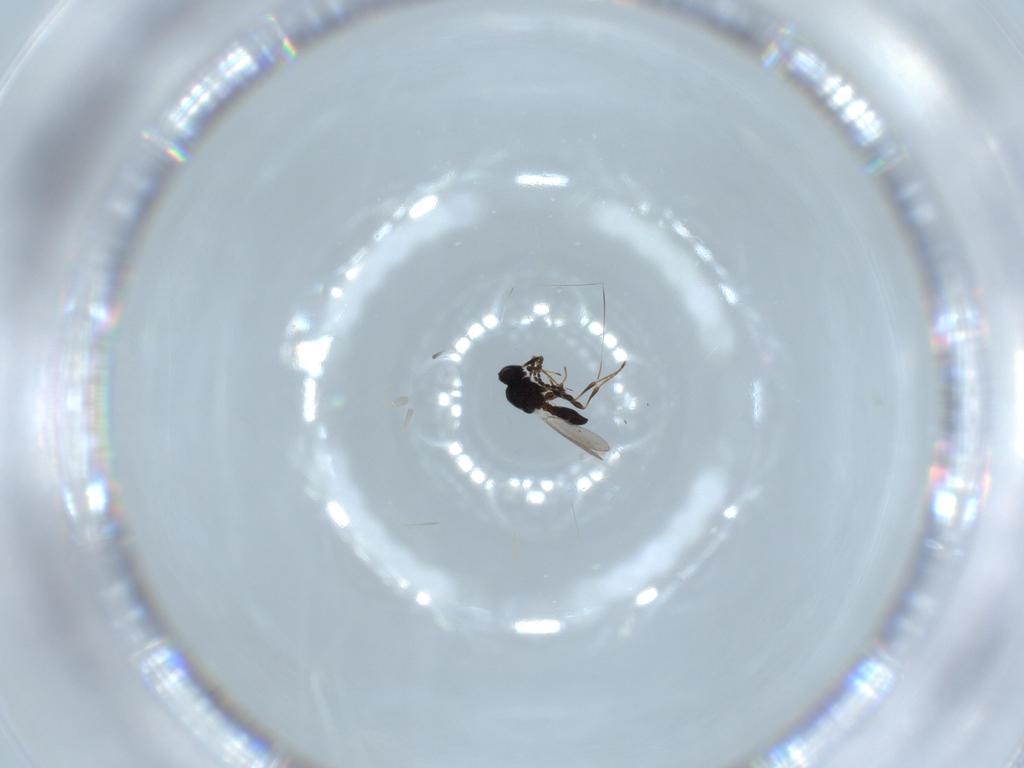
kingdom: Animalia
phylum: Arthropoda
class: Insecta
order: Hymenoptera
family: Platygastridae
